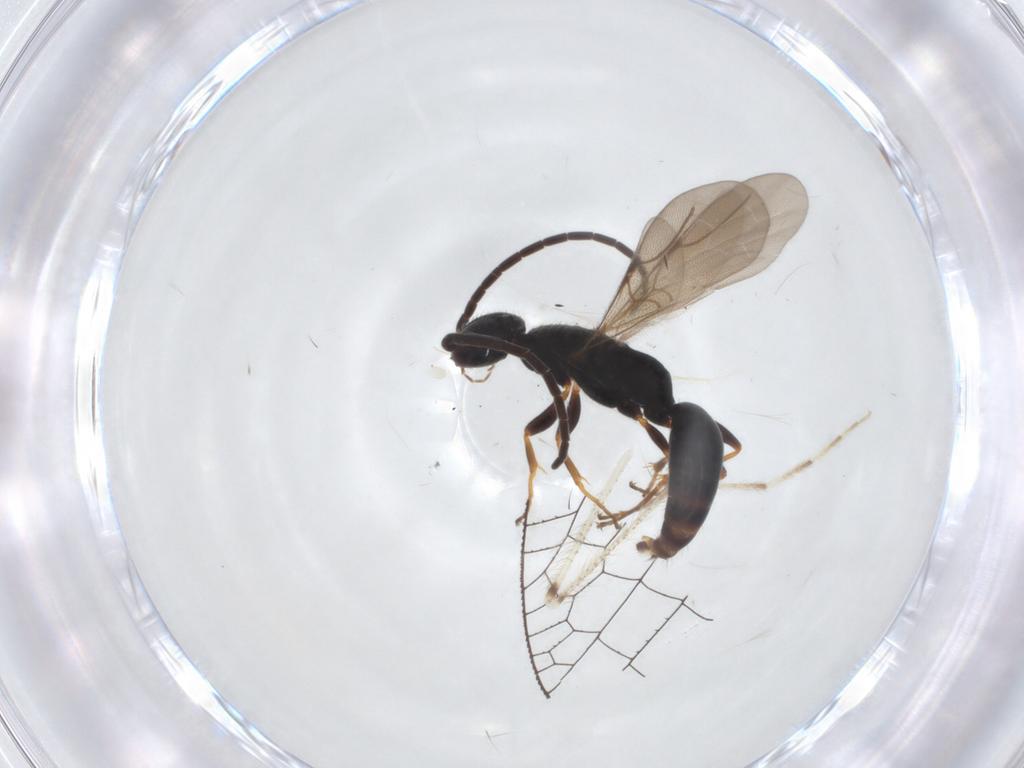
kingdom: Animalia
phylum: Arthropoda
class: Insecta
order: Hymenoptera
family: Bethylidae
